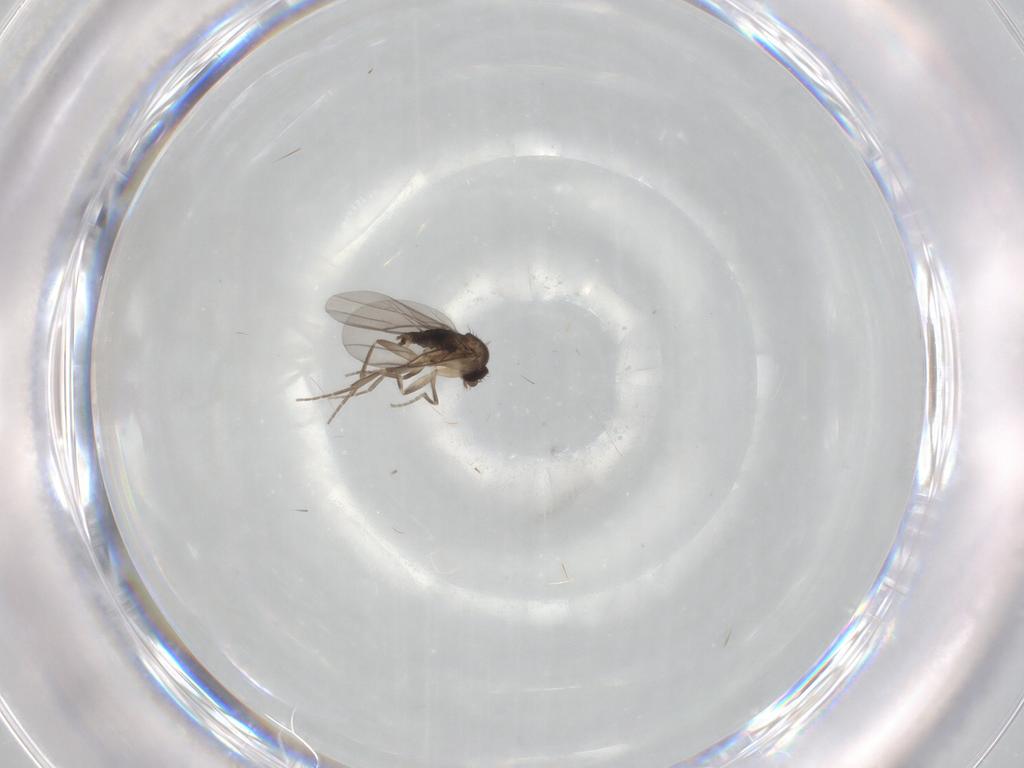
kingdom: Animalia
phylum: Arthropoda
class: Insecta
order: Diptera
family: Phoridae
